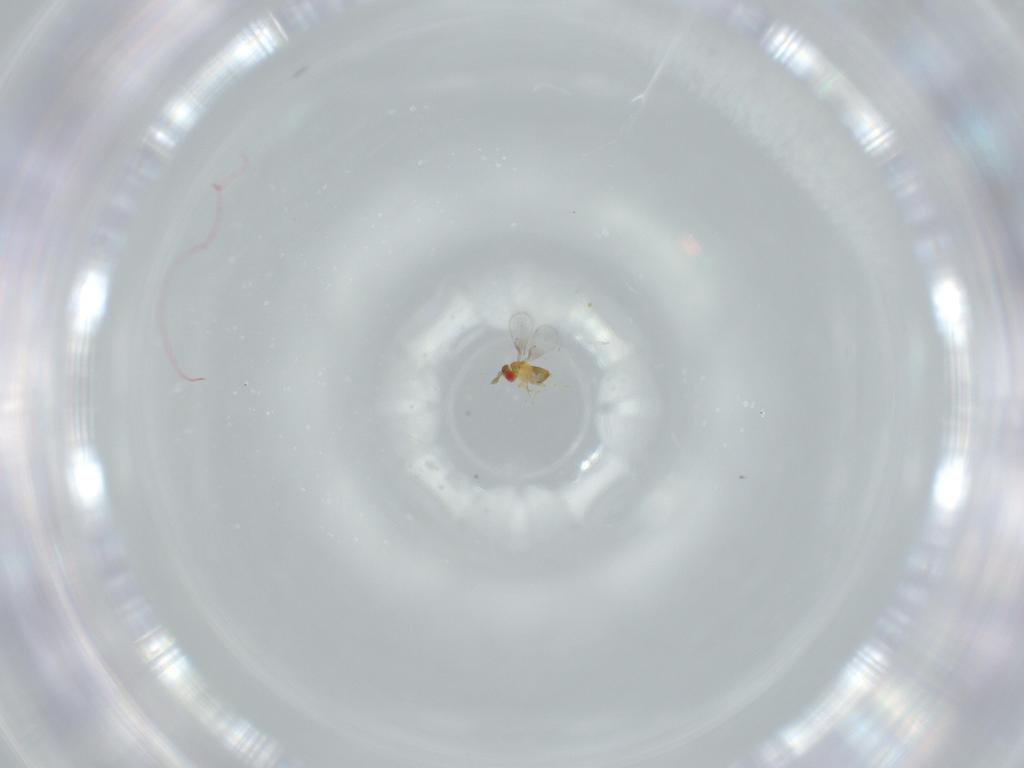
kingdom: Animalia
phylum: Arthropoda
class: Insecta
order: Hymenoptera
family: Trichogrammatidae
